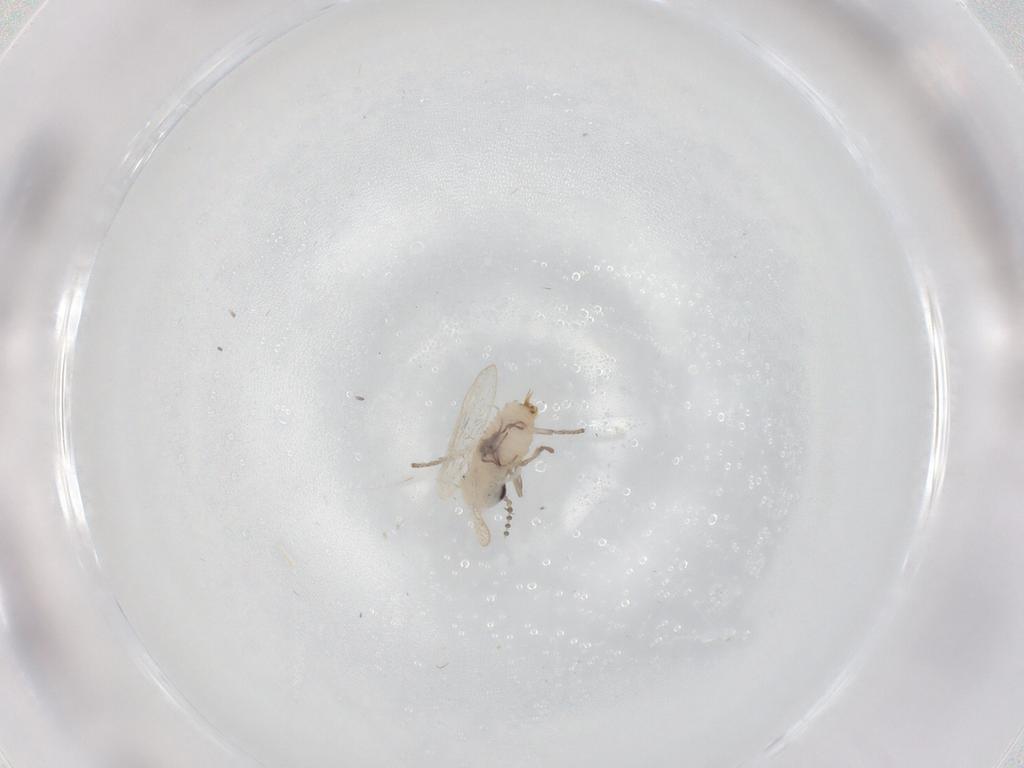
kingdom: Animalia
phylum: Arthropoda
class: Insecta
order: Diptera
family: Psychodidae
